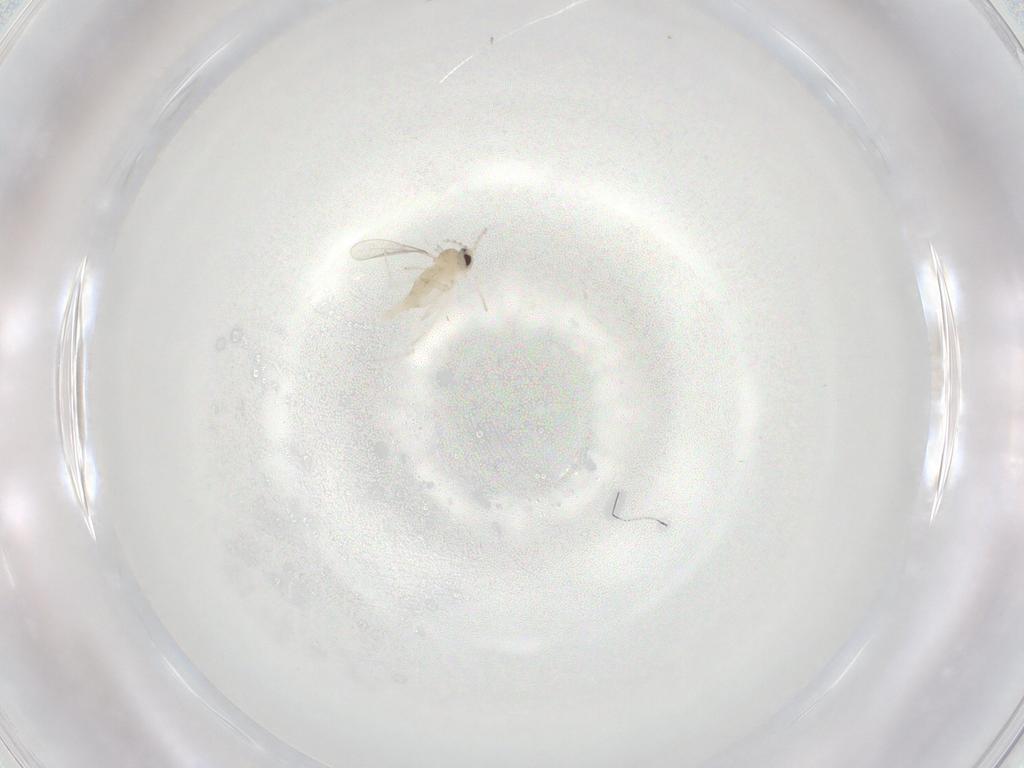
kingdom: Animalia
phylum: Arthropoda
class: Insecta
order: Diptera
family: Cecidomyiidae
